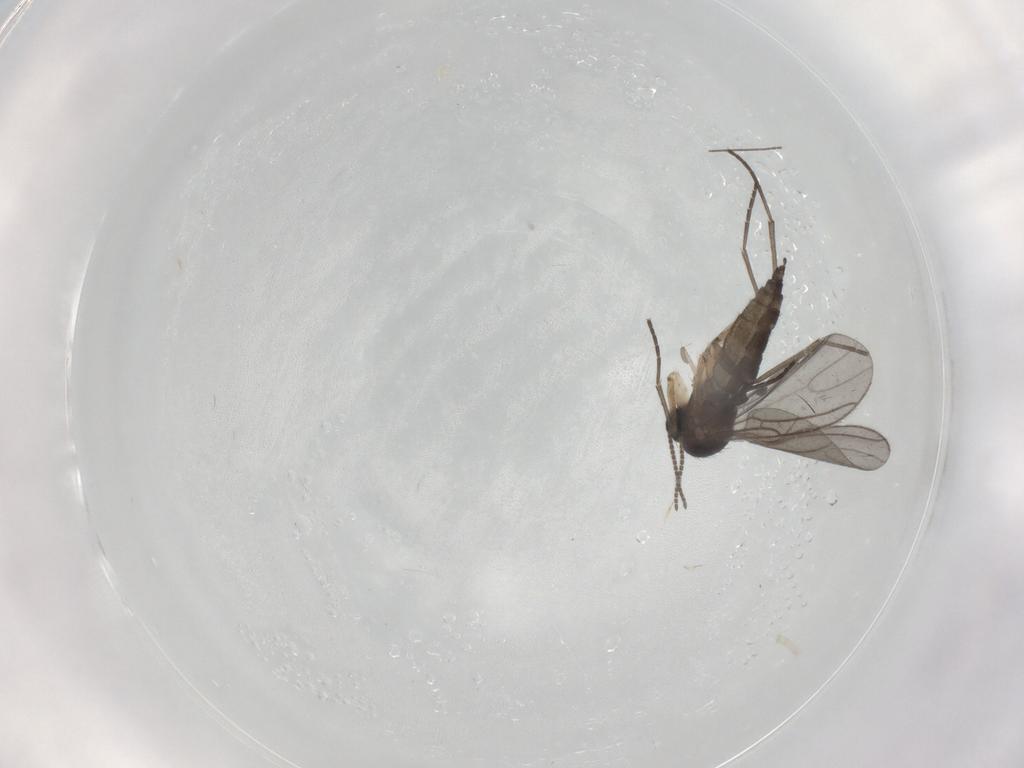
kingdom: Animalia
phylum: Arthropoda
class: Insecta
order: Diptera
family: Sciaridae
